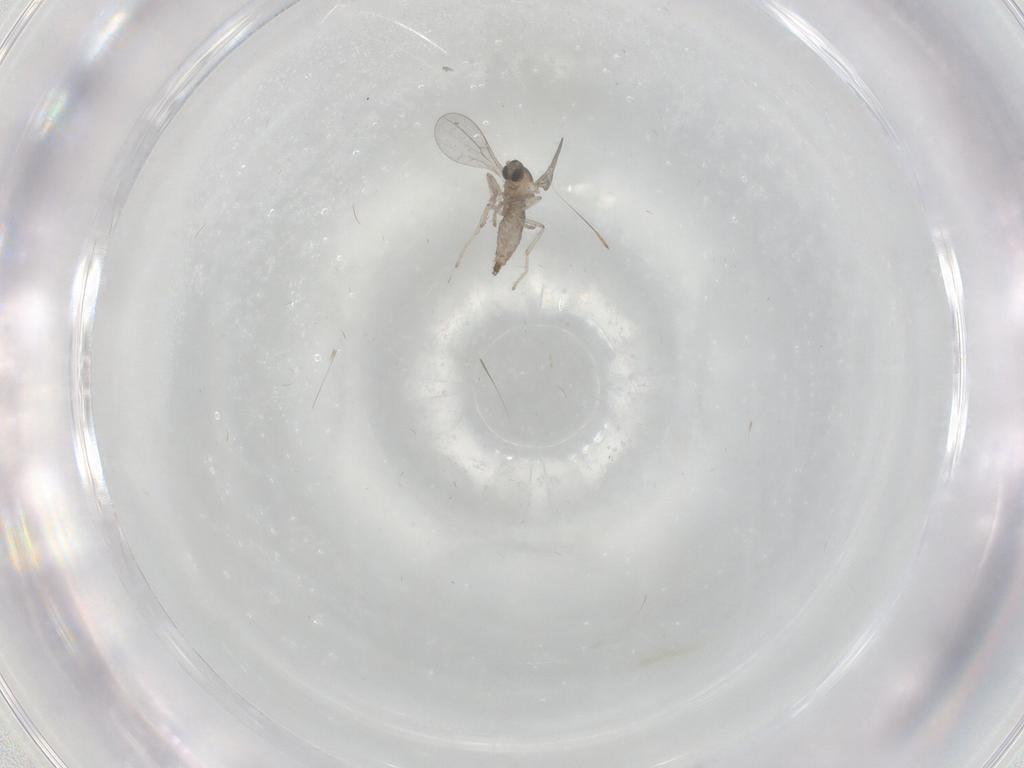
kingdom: Animalia
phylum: Arthropoda
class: Insecta
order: Diptera
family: Cecidomyiidae
